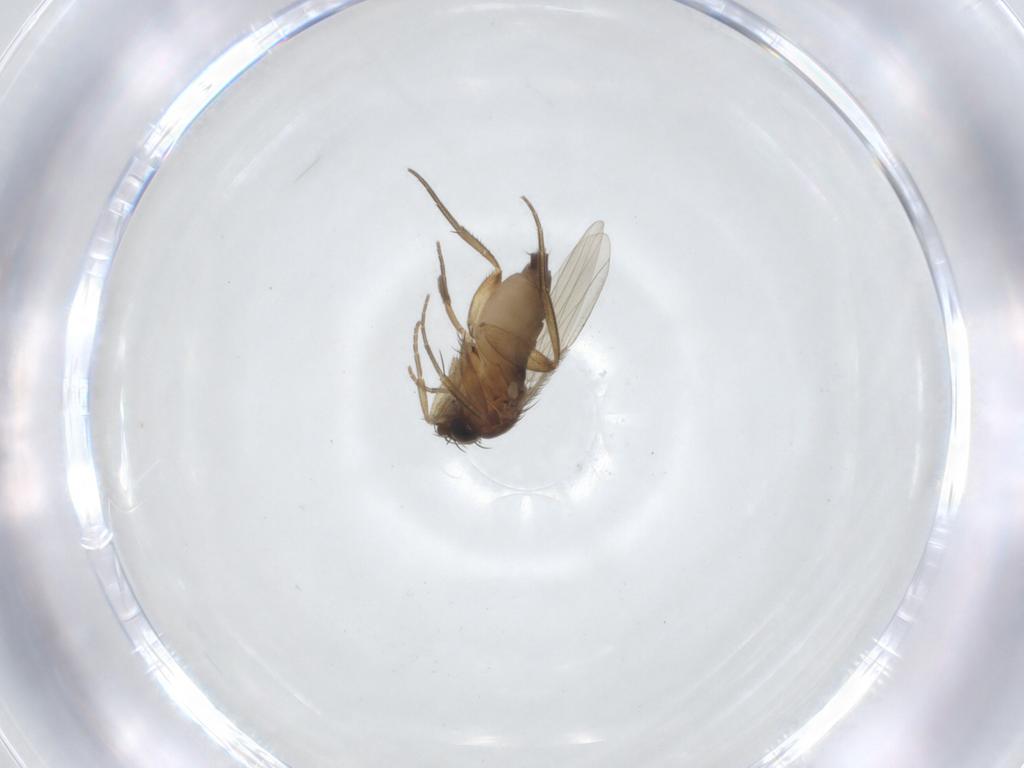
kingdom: Animalia
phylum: Arthropoda
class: Insecta
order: Diptera
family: Phoridae
